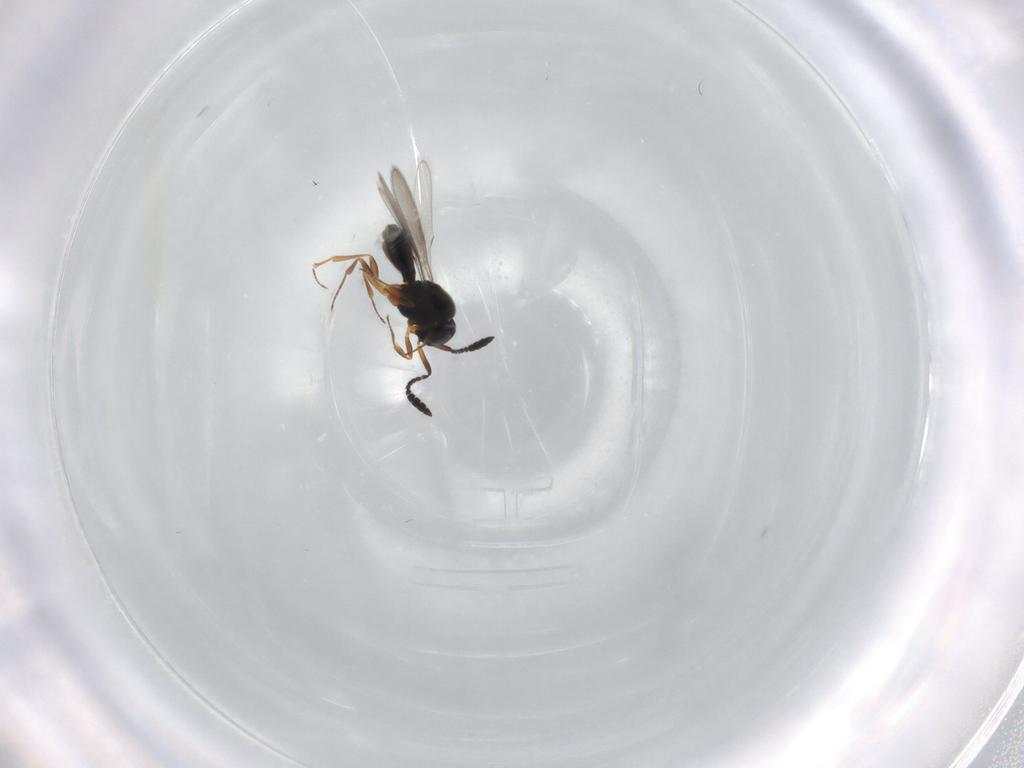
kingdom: Animalia
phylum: Arthropoda
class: Insecta
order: Hymenoptera
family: Scelionidae
